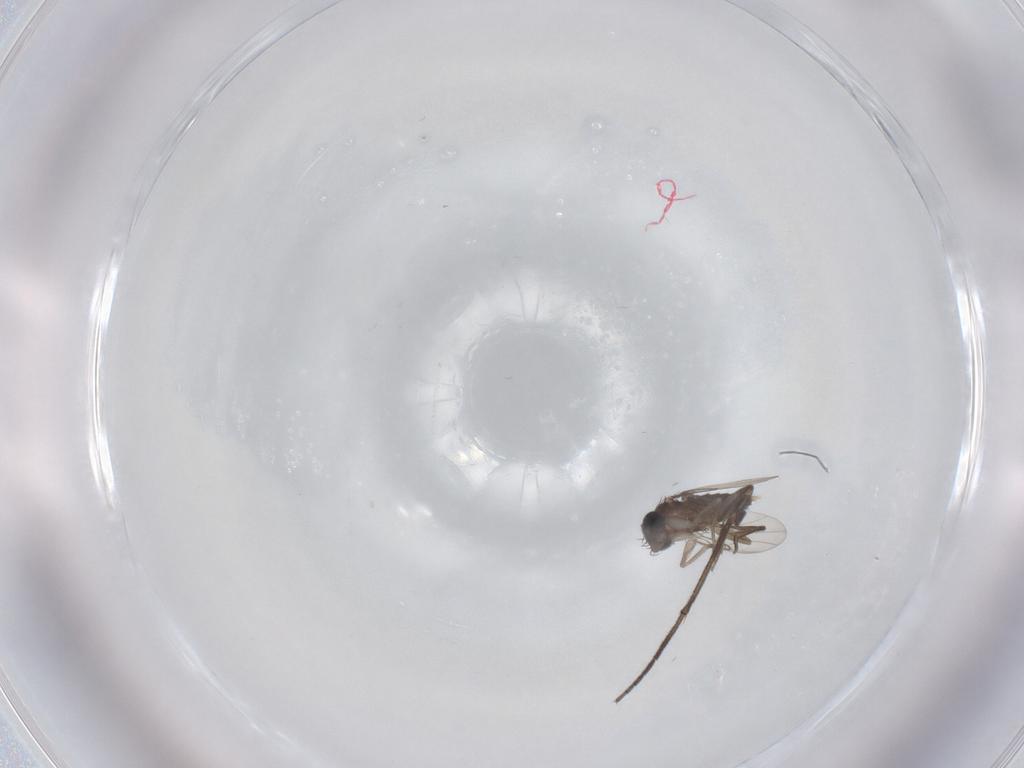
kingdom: Animalia
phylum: Arthropoda
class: Insecta
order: Diptera
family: Phoridae
